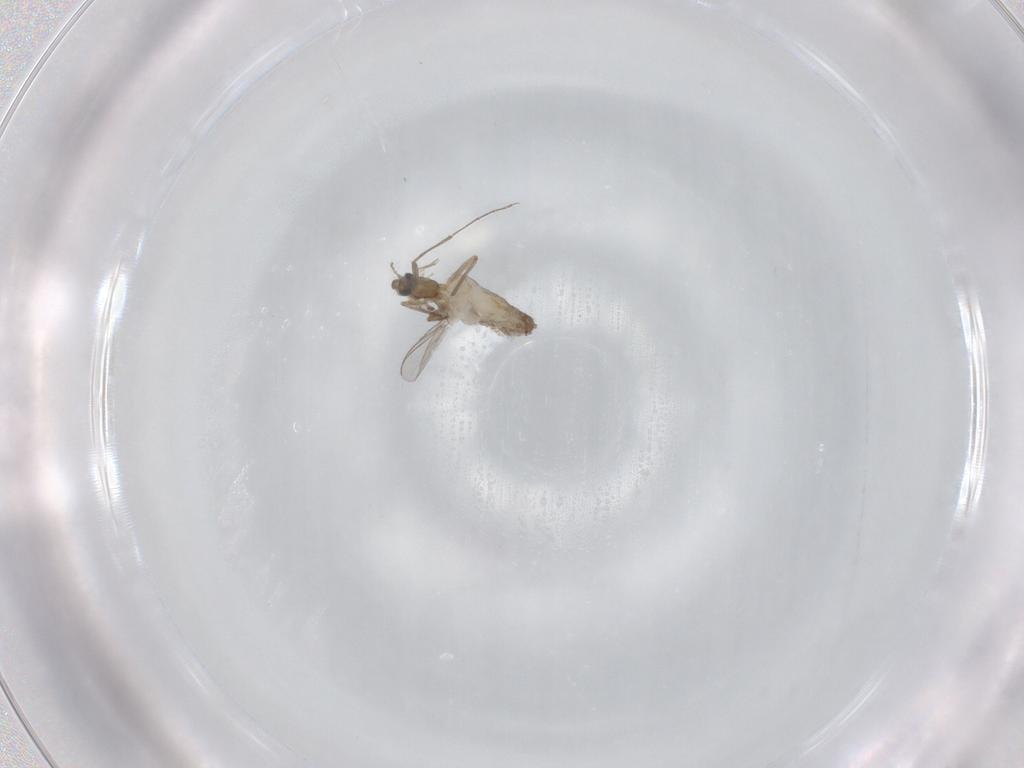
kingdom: Animalia
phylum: Arthropoda
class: Insecta
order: Diptera
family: Chironomidae
